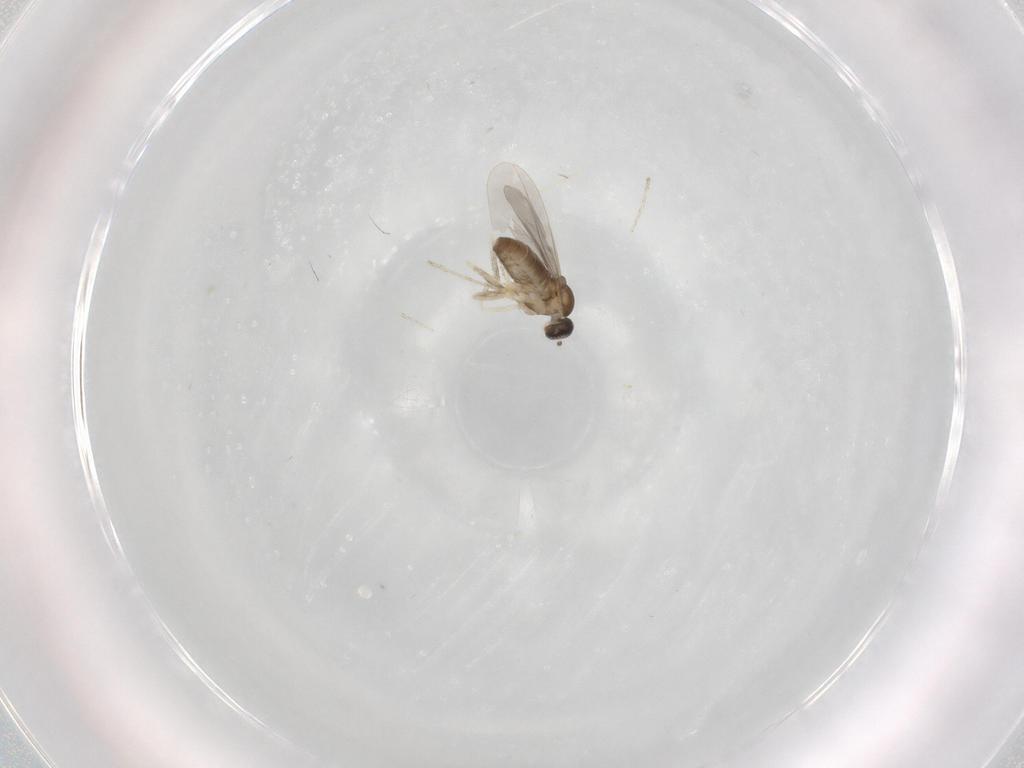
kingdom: Animalia
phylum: Arthropoda
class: Insecta
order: Diptera
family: Cecidomyiidae
